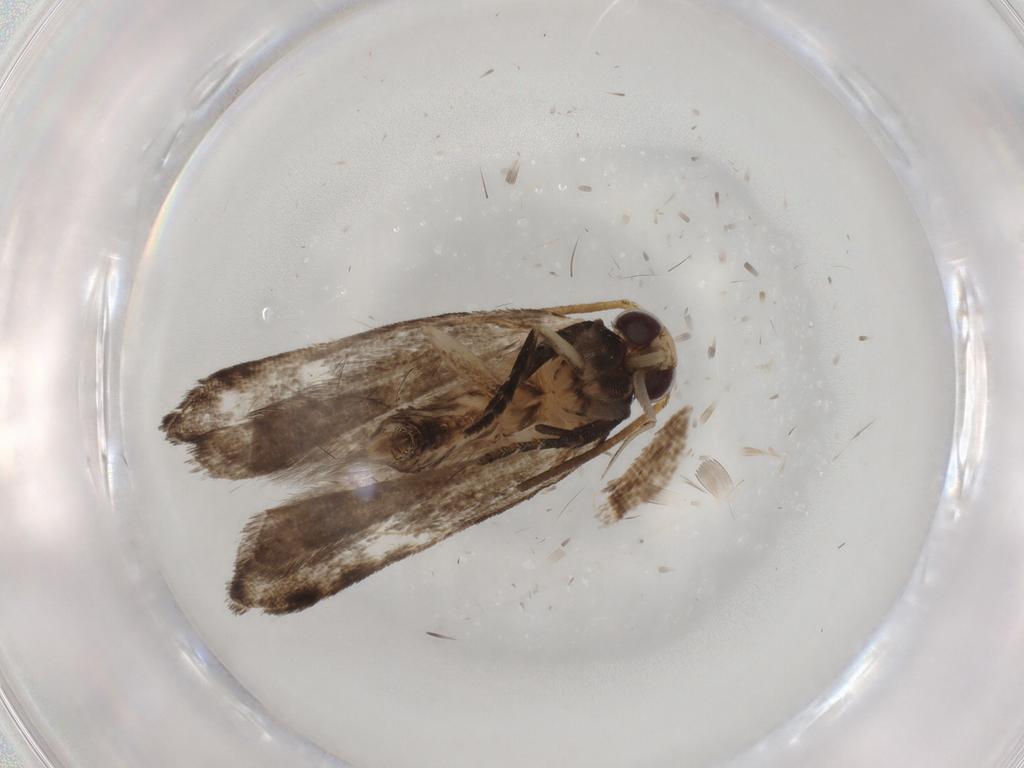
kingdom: Animalia
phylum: Arthropoda
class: Insecta
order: Lepidoptera
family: Gelechiidae
